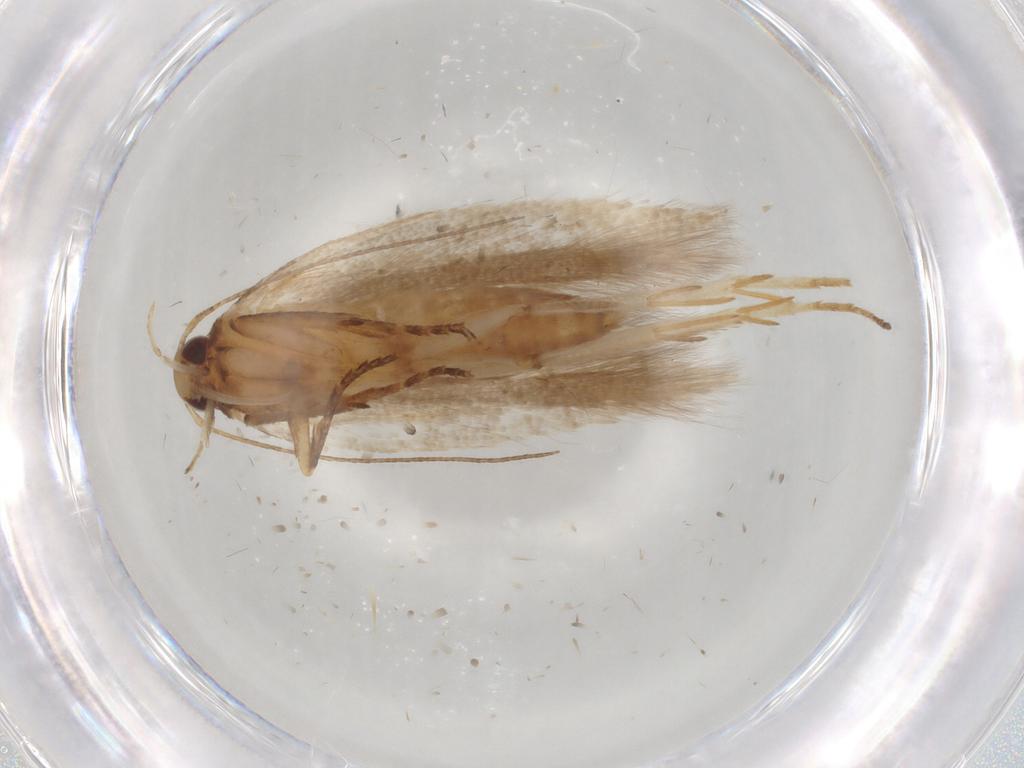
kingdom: Animalia
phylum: Arthropoda
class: Insecta
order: Lepidoptera
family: Gelechiidae
